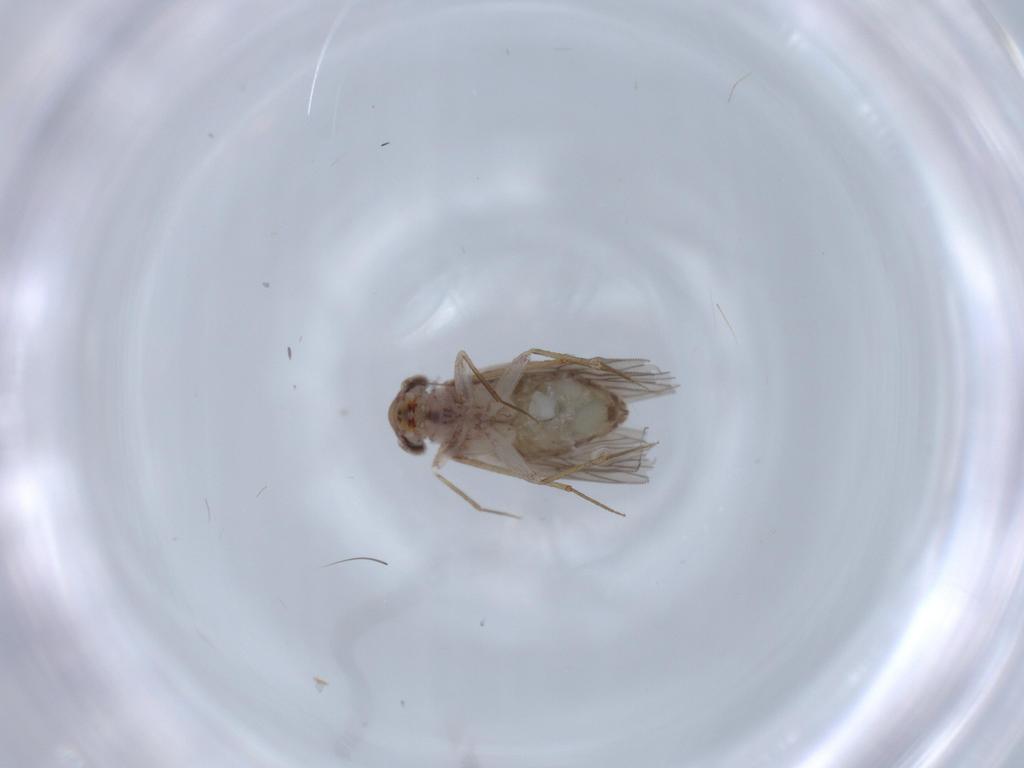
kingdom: Animalia
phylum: Arthropoda
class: Insecta
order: Psocodea
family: Lepidopsocidae
